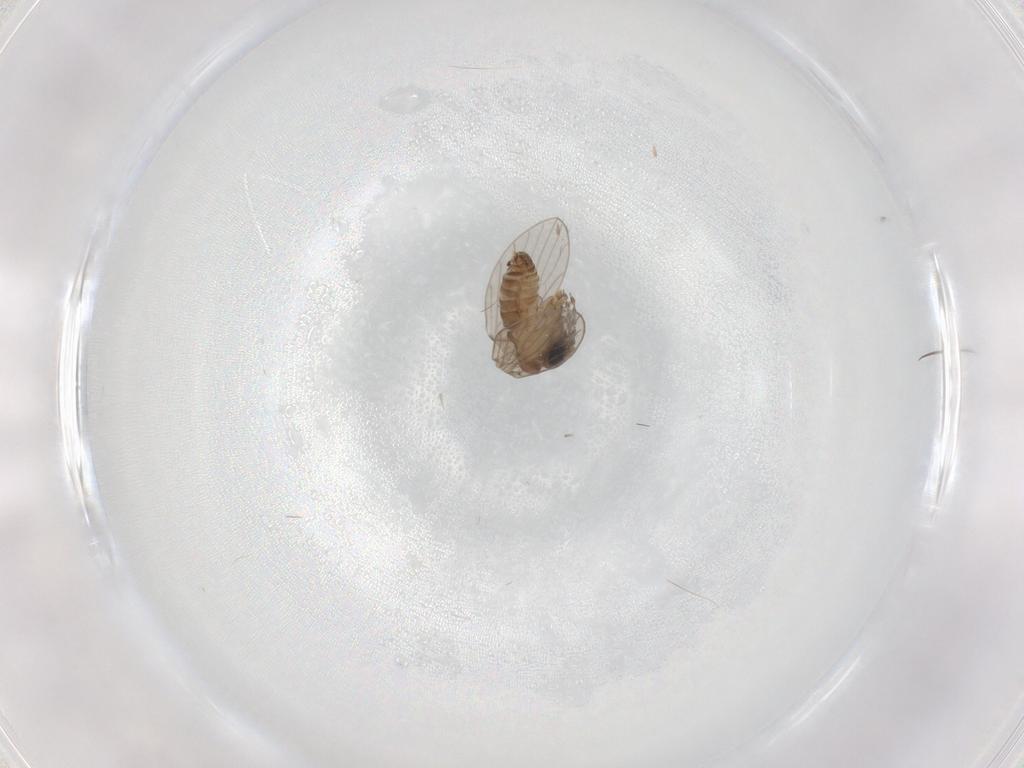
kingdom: Animalia
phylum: Arthropoda
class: Insecta
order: Diptera
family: Psychodidae
